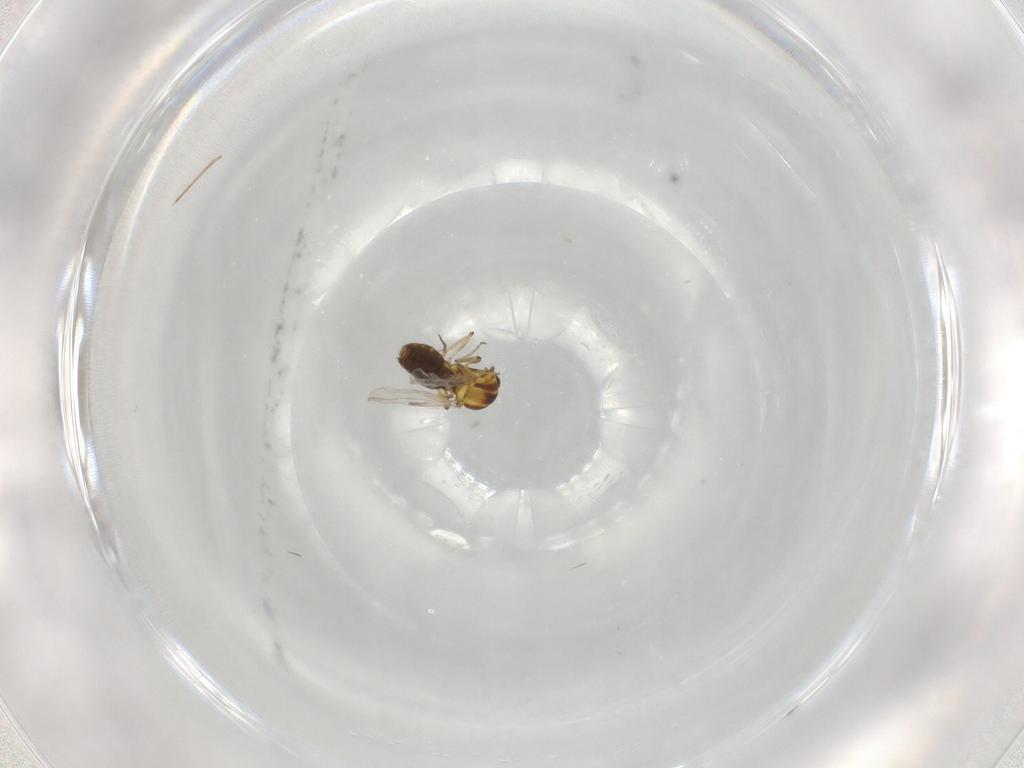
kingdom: Animalia
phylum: Arthropoda
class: Insecta
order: Diptera
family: Ceratopogonidae
